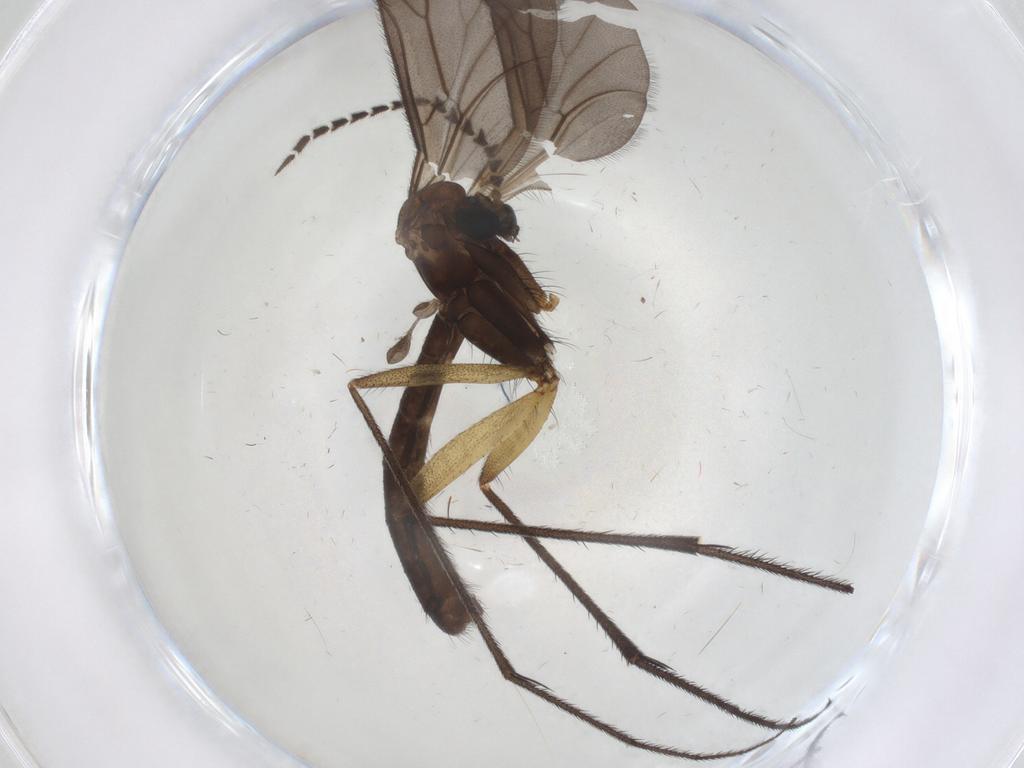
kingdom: Animalia
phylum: Arthropoda
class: Insecta
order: Diptera
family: Ditomyiidae
